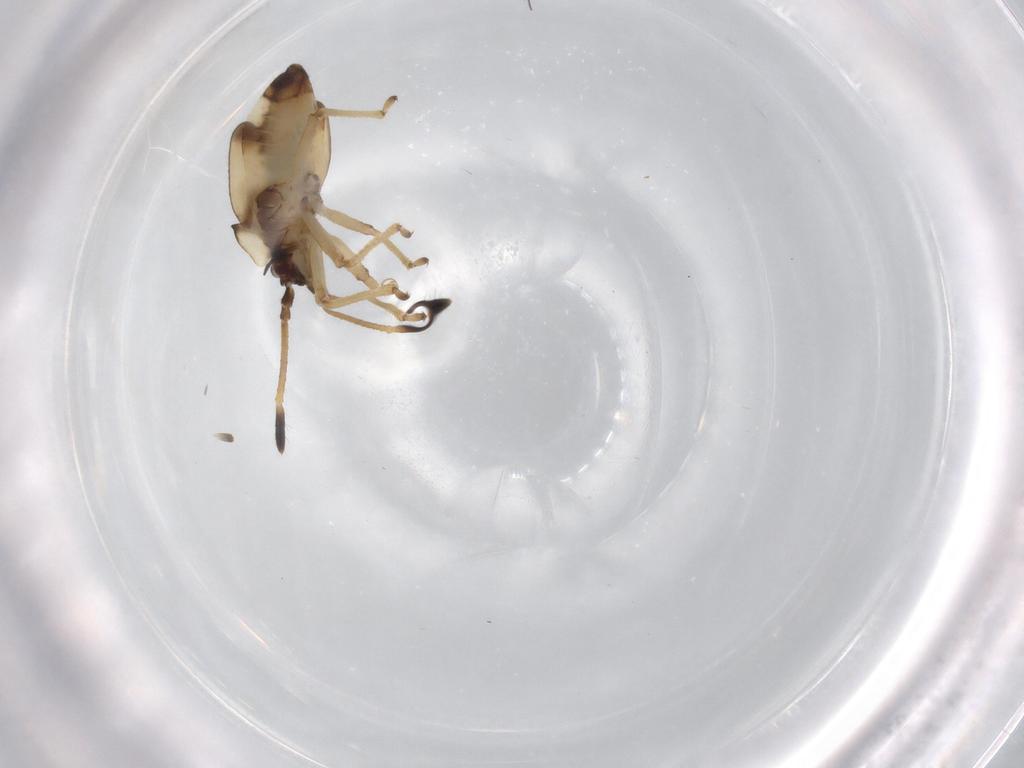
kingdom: Animalia
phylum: Arthropoda
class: Insecta
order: Hemiptera
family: Tingidae
